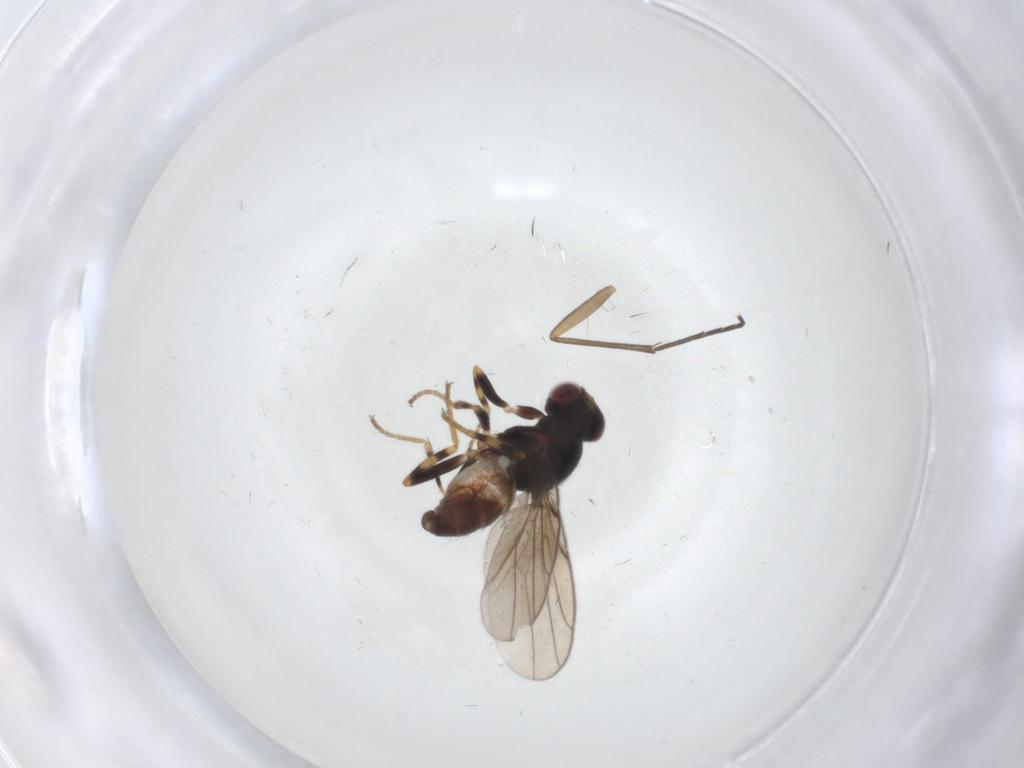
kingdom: Animalia
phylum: Arthropoda
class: Insecta
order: Diptera
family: Chloropidae
